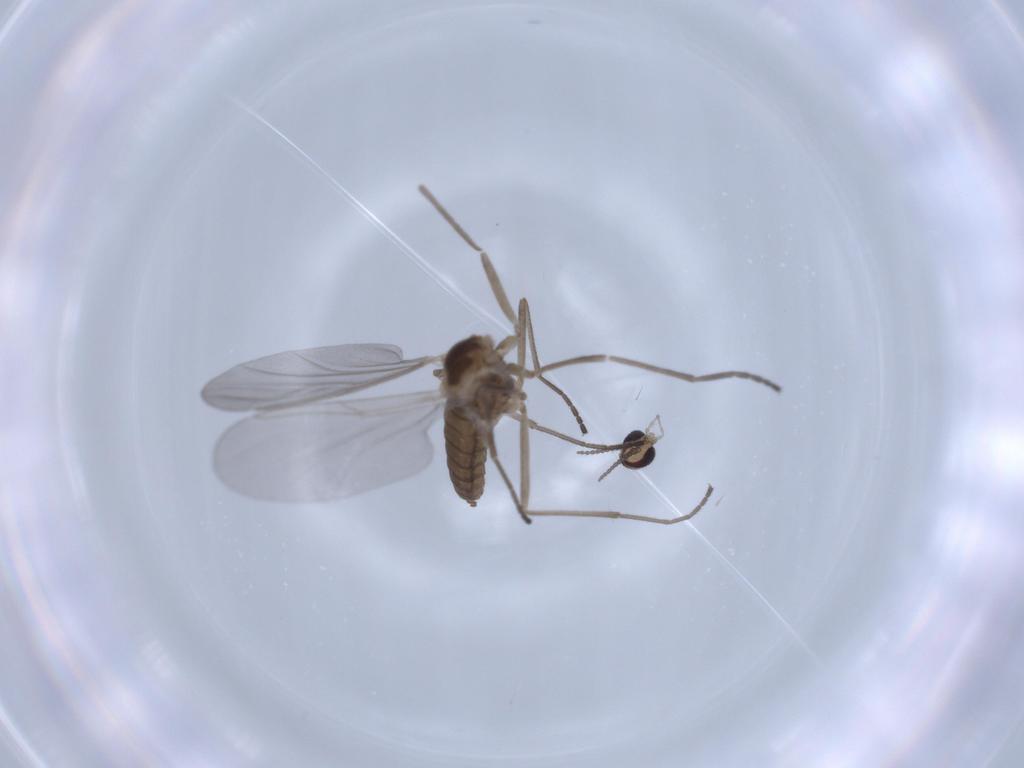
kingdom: Animalia
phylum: Arthropoda
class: Insecta
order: Diptera
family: Cecidomyiidae
